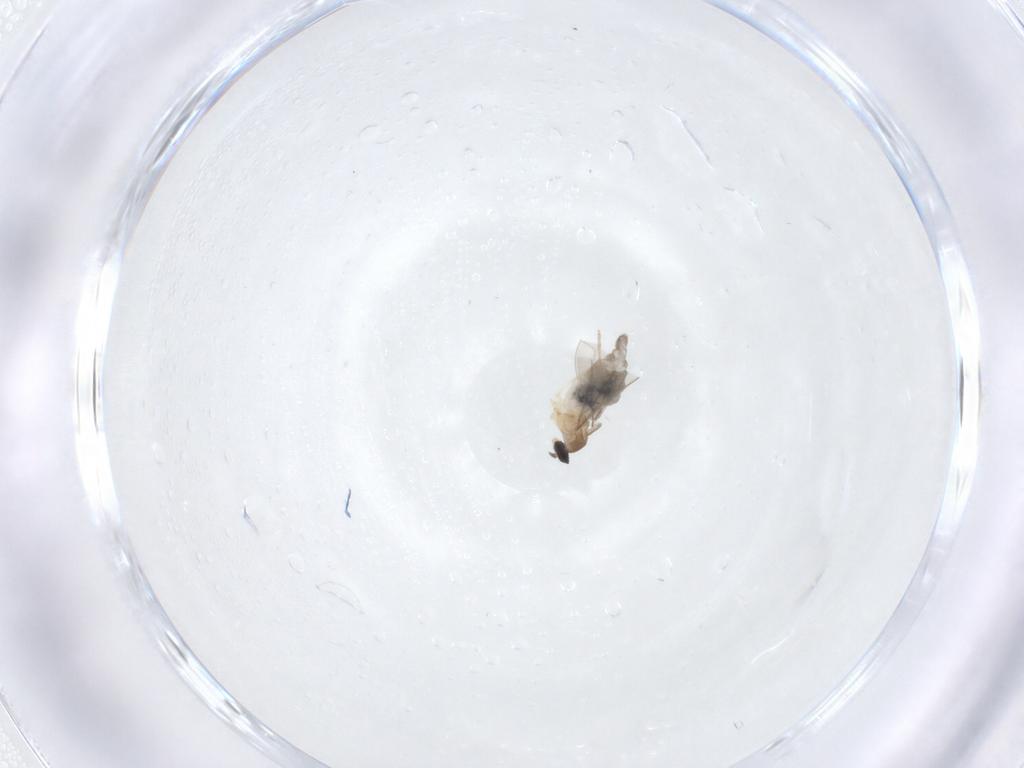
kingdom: Animalia
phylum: Arthropoda
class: Insecta
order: Diptera
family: Cecidomyiidae
